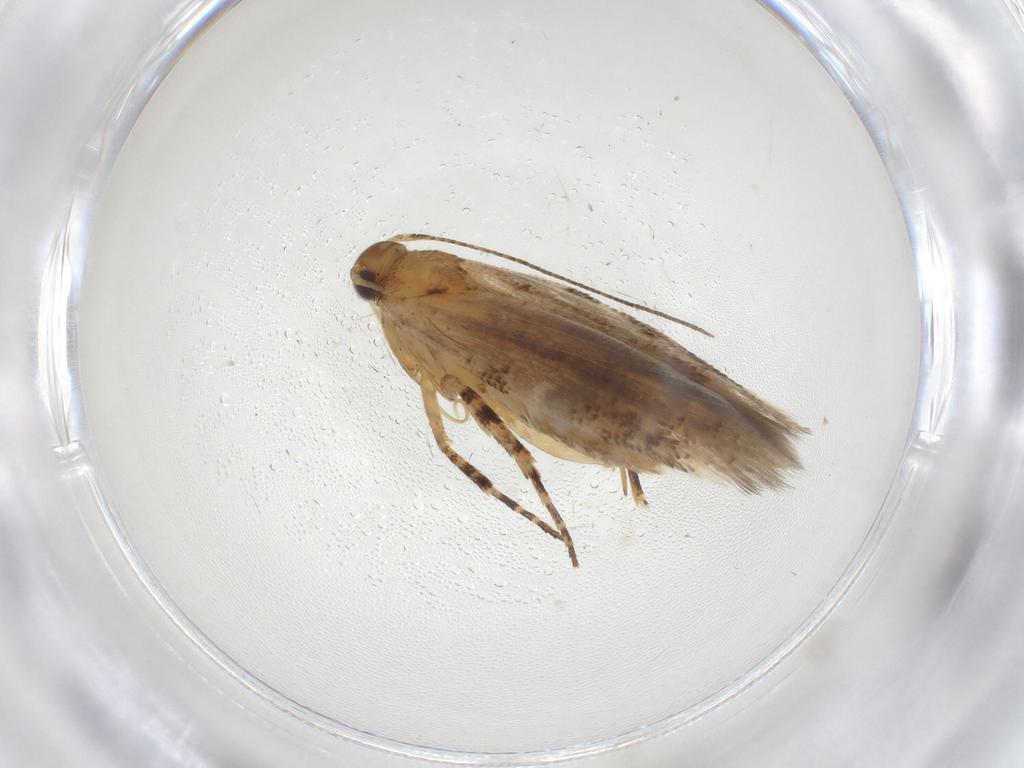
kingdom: Animalia
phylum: Arthropoda
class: Insecta
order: Lepidoptera
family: Gelechiidae
